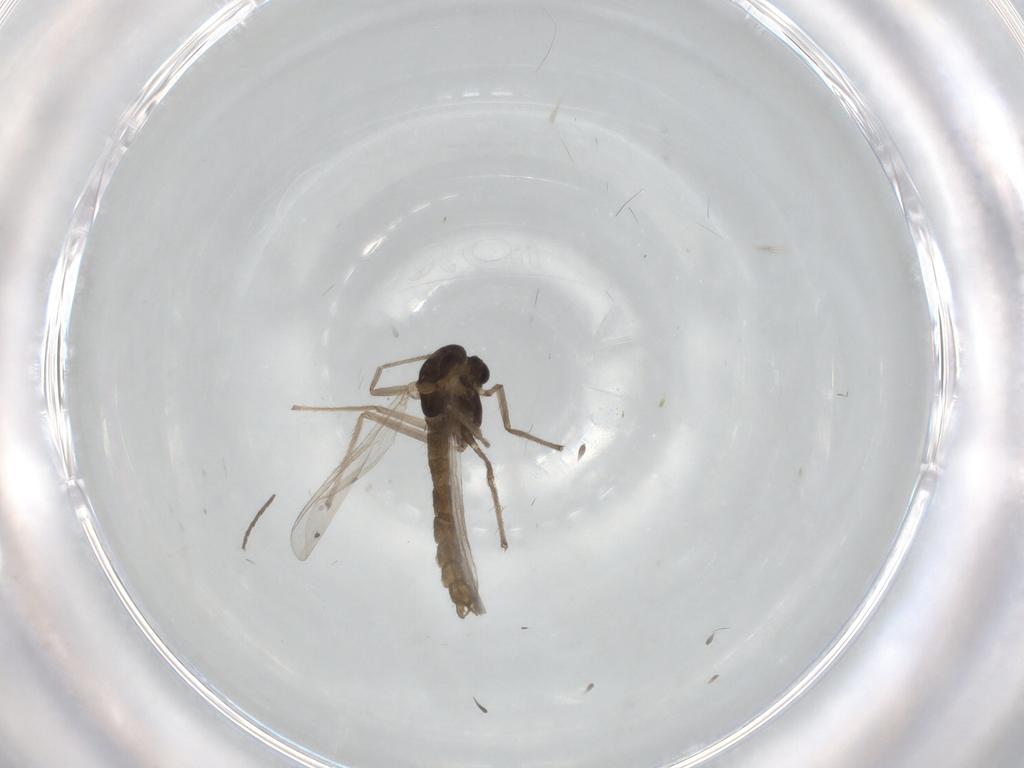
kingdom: Animalia
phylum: Arthropoda
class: Insecta
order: Diptera
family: Chironomidae
